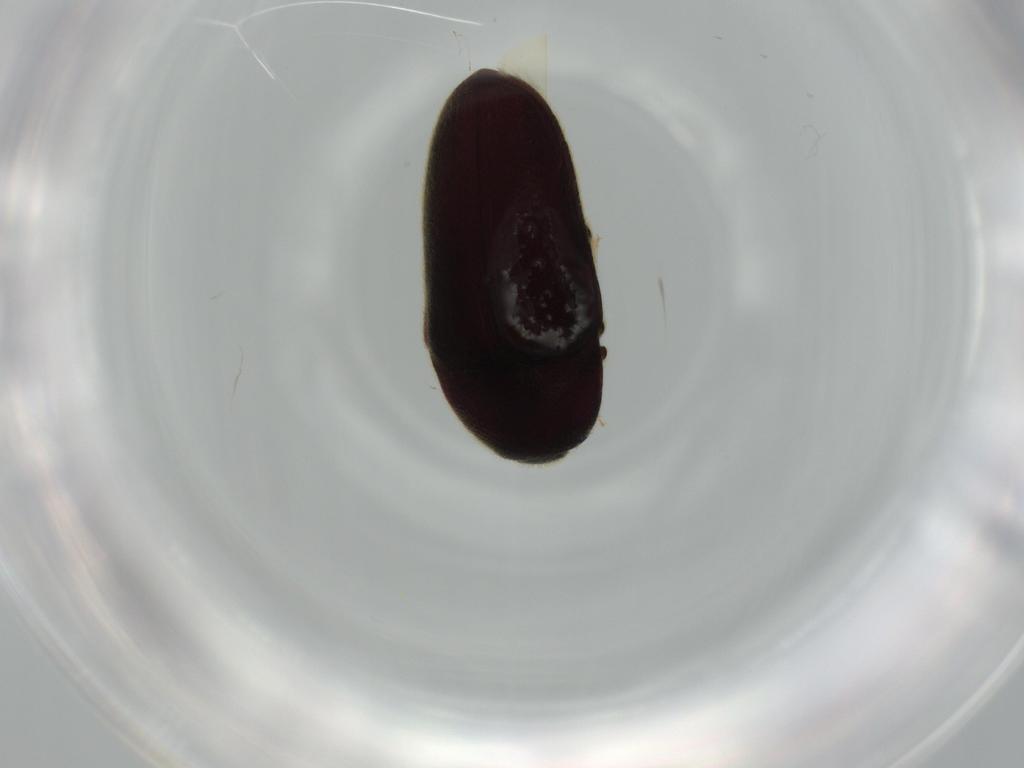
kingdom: Animalia
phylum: Arthropoda
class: Insecta
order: Coleoptera
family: Throscidae
